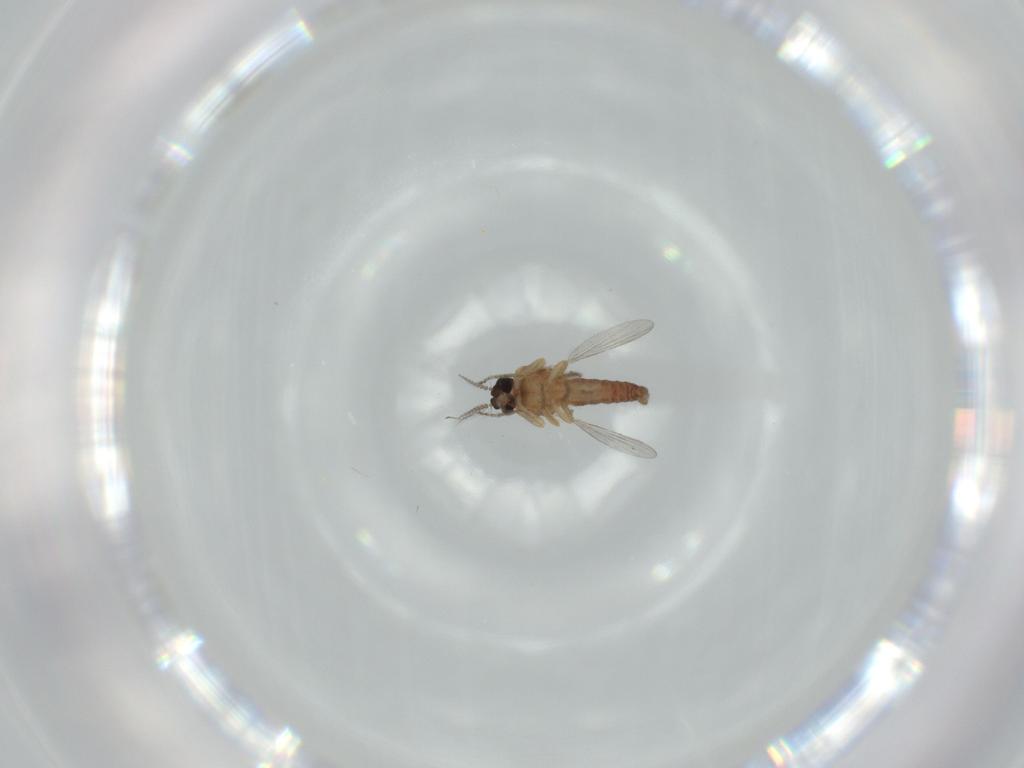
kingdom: Animalia
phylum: Arthropoda
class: Insecta
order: Diptera
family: Ceratopogonidae
